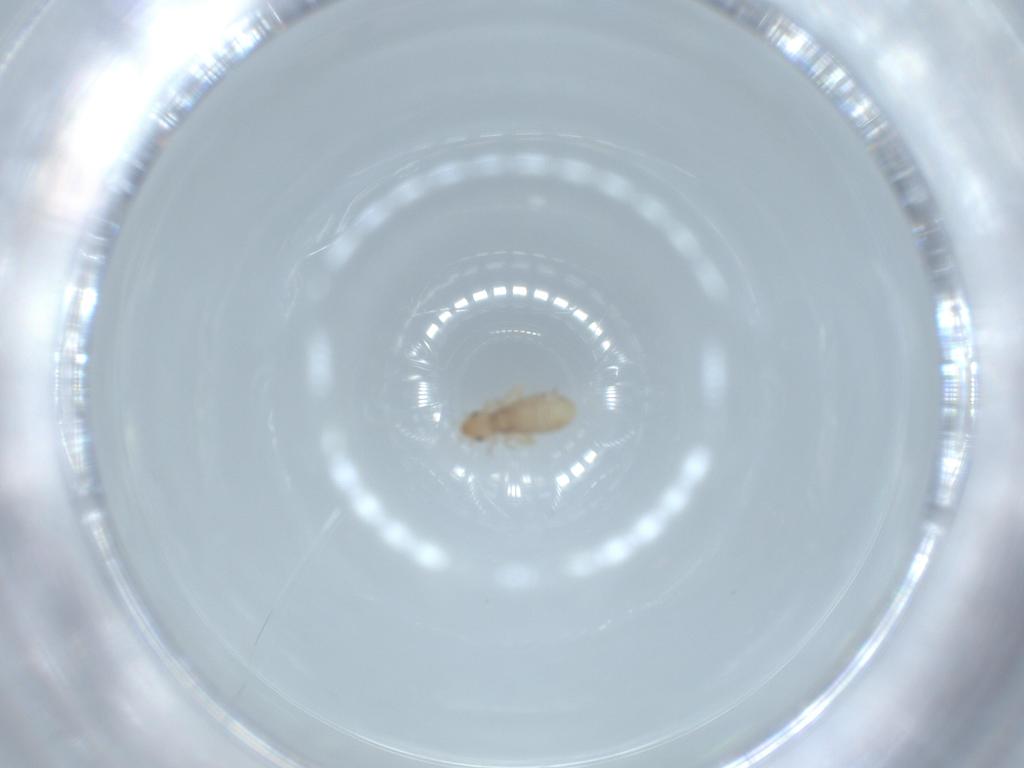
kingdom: Animalia
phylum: Arthropoda
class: Insecta
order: Psocodea
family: Liposcelididae
